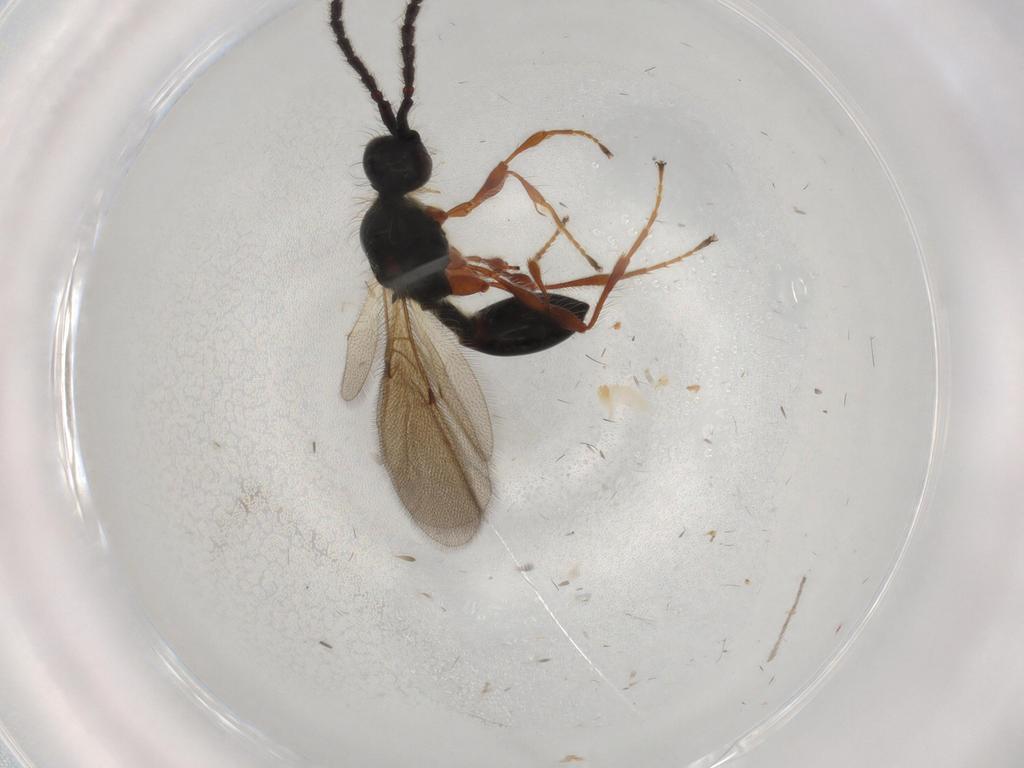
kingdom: Animalia
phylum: Arthropoda
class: Insecta
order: Hymenoptera
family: Diapriidae
